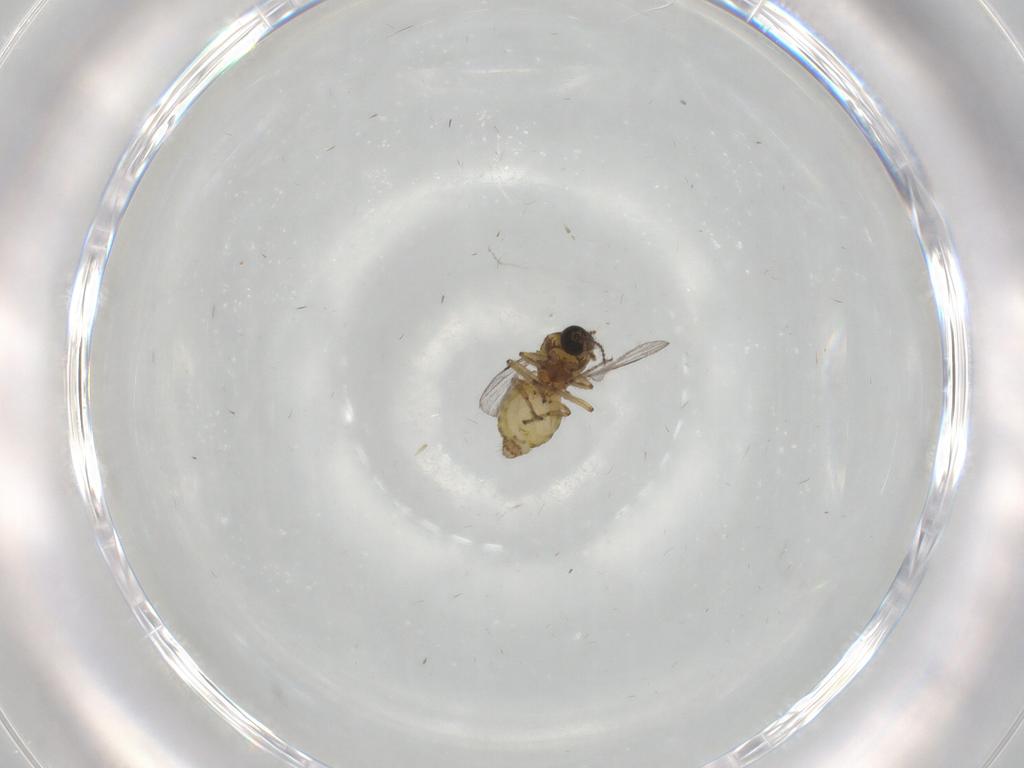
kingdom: Animalia
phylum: Arthropoda
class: Insecta
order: Diptera
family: Ceratopogonidae
